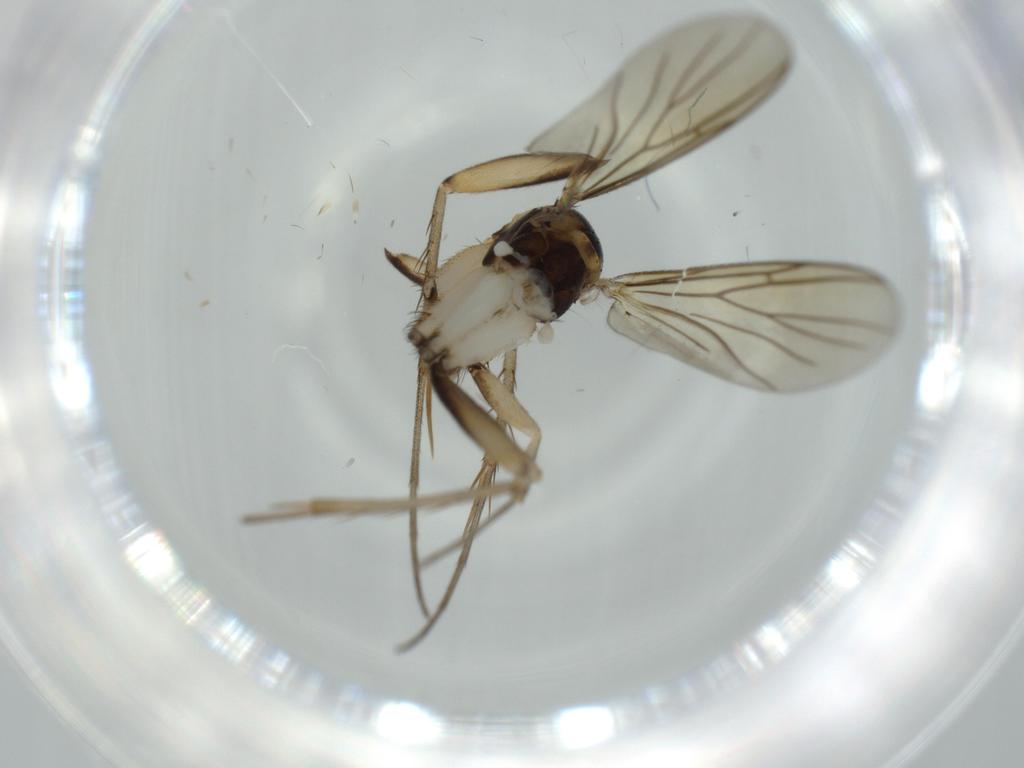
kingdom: Animalia
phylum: Arthropoda
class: Insecta
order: Diptera
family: Mycetophilidae
